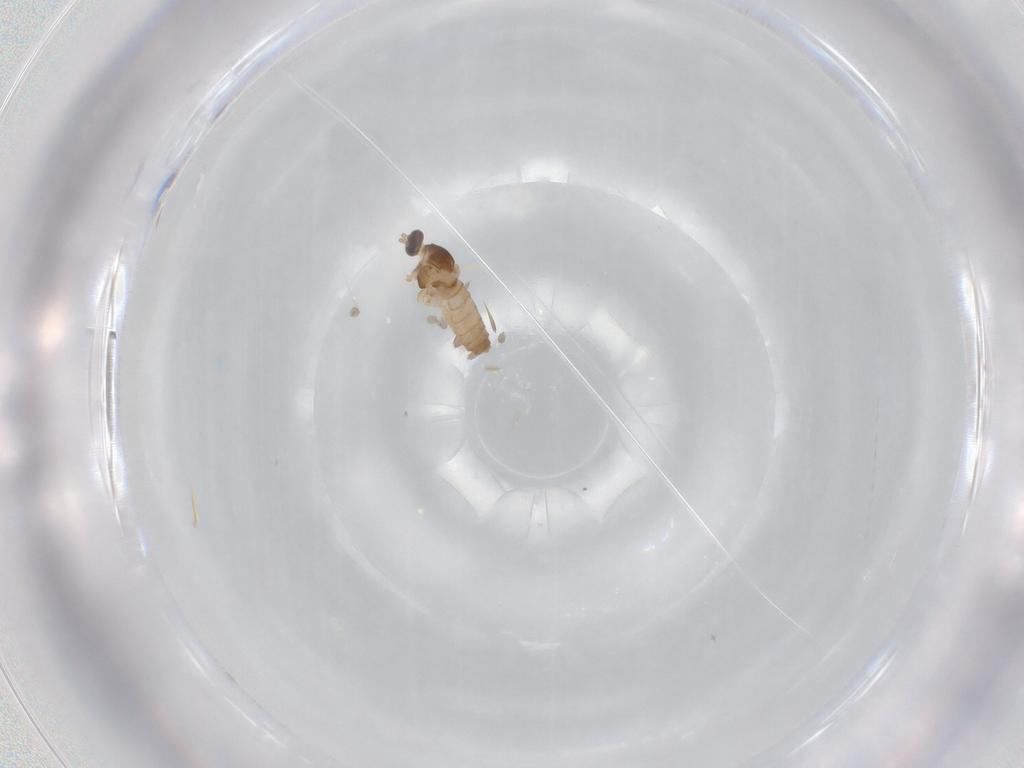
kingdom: Animalia
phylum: Arthropoda
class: Insecta
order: Diptera
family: Cecidomyiidae
